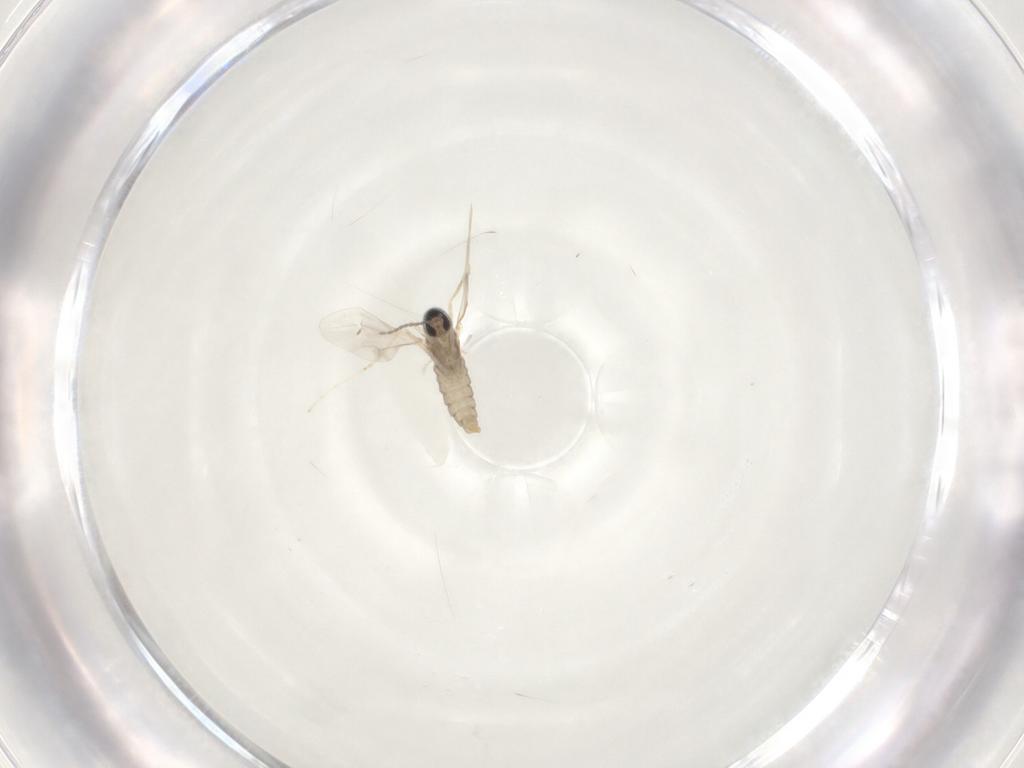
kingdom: Animalia
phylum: Arthropoda
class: Insecta
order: Diptera
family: Cecidomyiidae
